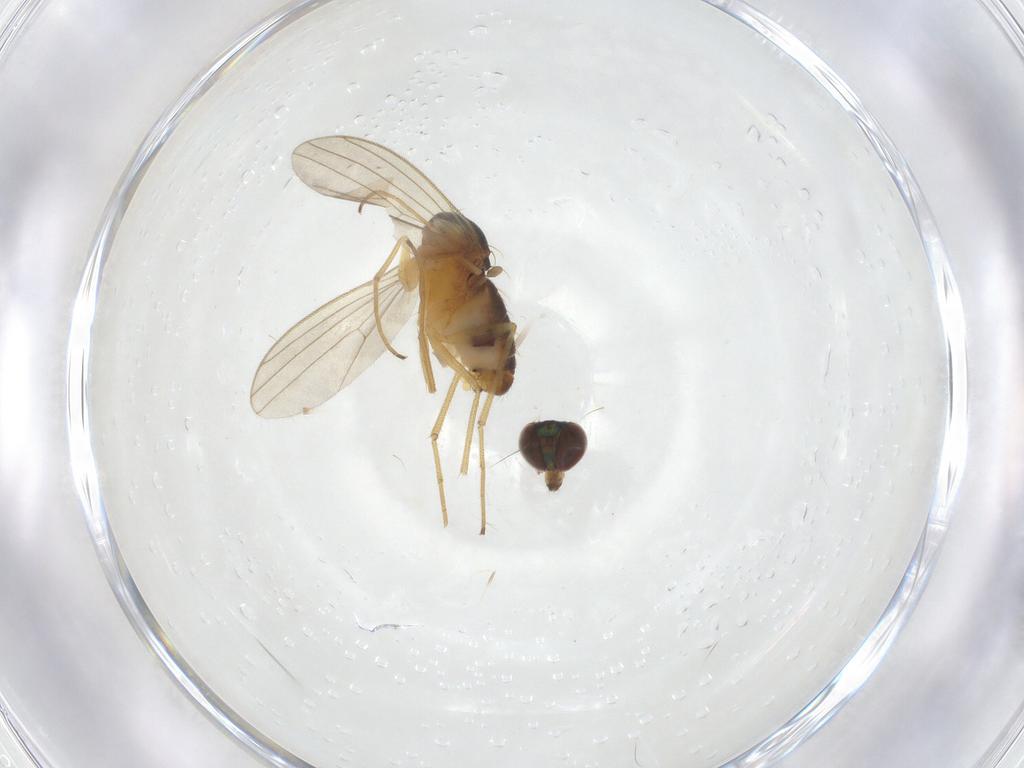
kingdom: Animalia
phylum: Arthropoda
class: Insecta
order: Diptera
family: Dolichopodidae
